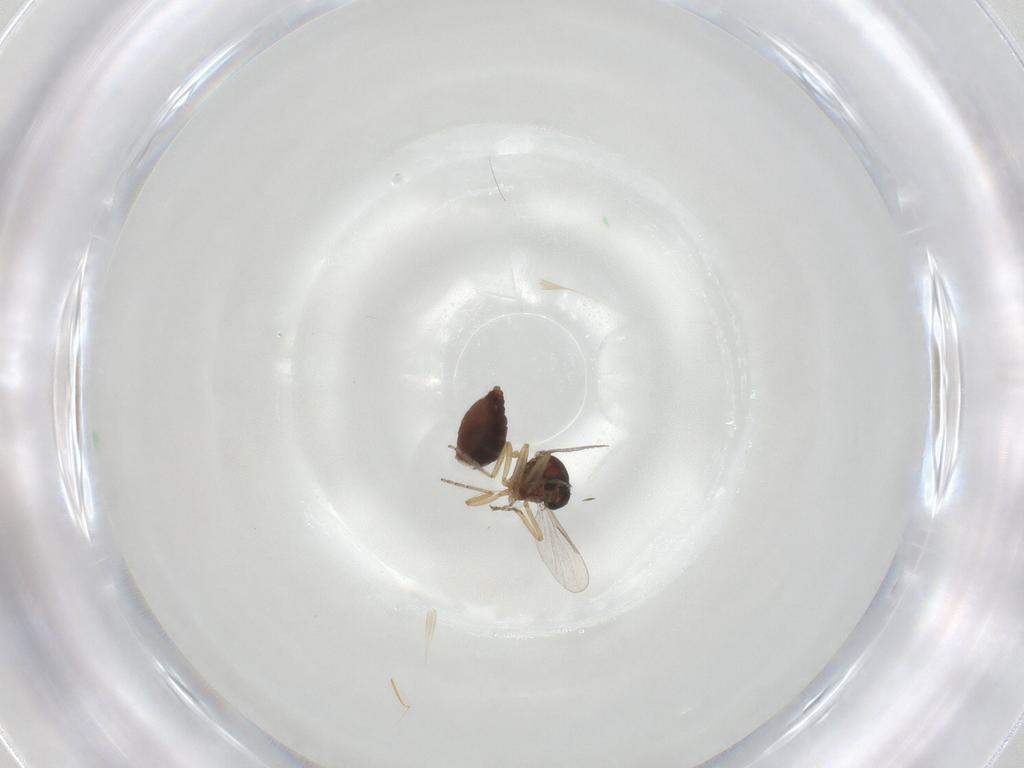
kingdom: Animalia
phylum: Arthropoda
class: Insecta
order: Diptera
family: Ceratopogonidae
